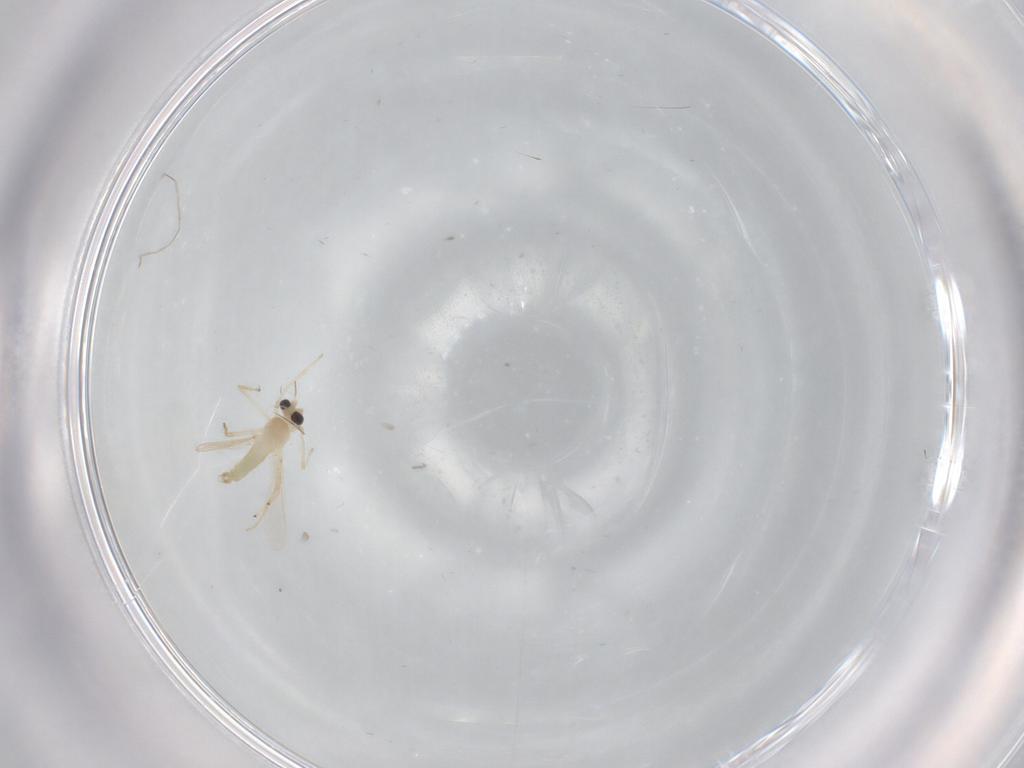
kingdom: Animalia
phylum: Arthropoda
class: Insecta
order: Diptera
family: Chironomidae
